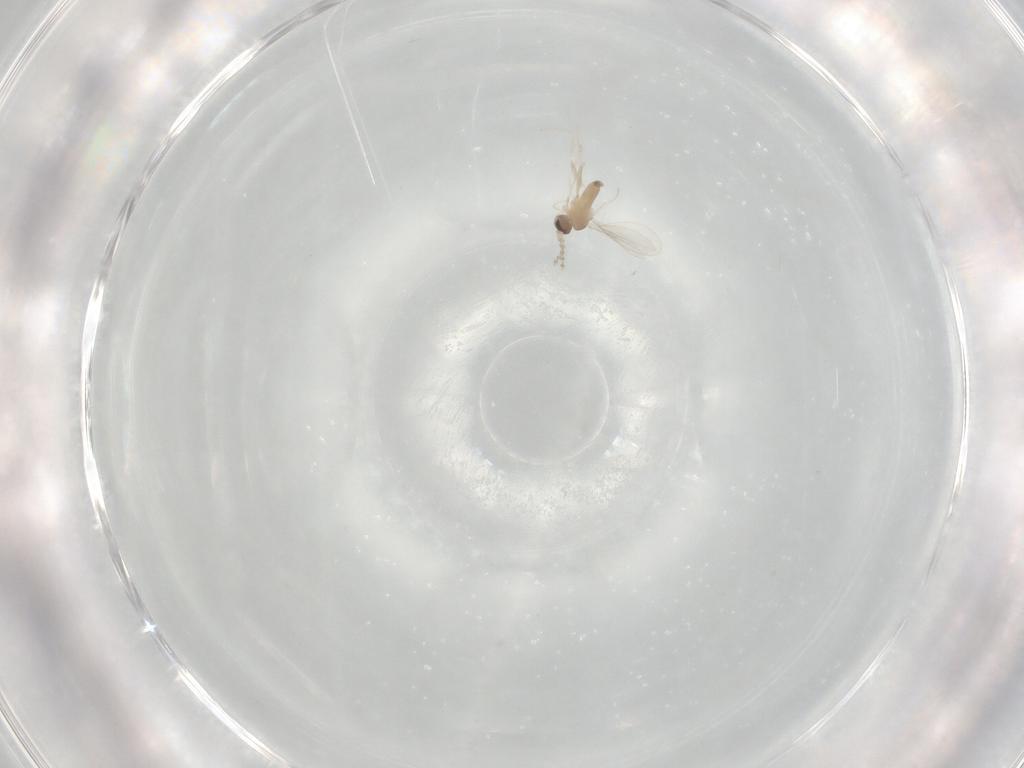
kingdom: Animalia
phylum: Arthropoda
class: Insecta
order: Diptera
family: Cecidomyiidae
